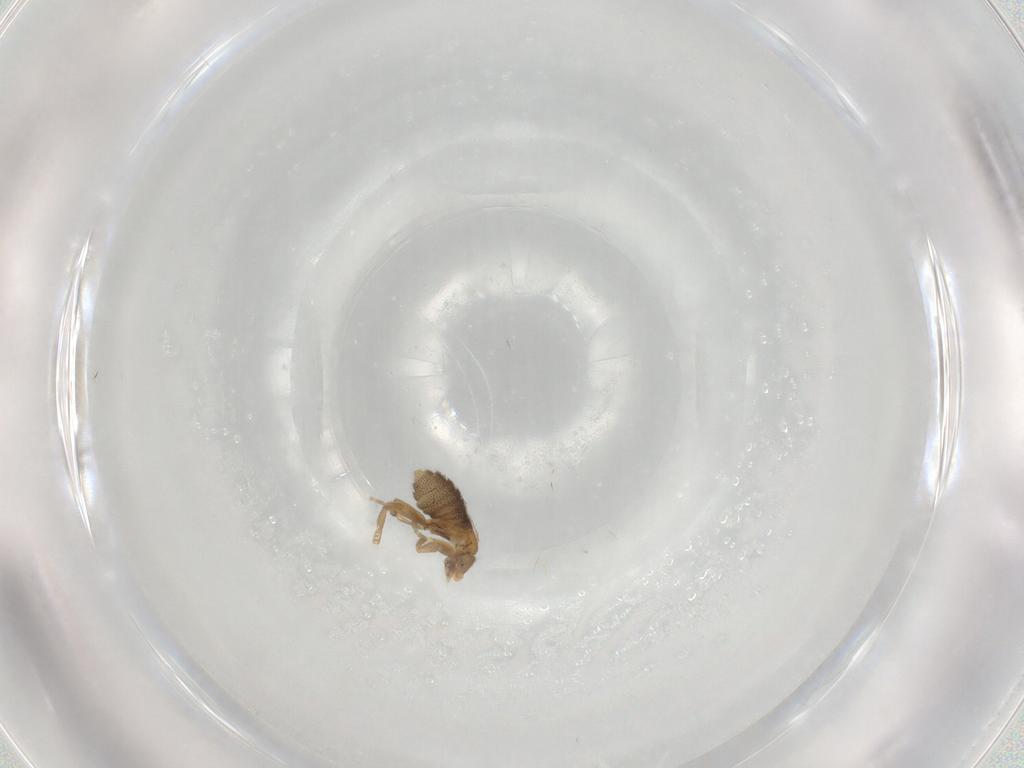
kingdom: Animalia
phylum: Arthropoda
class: Insecta
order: Diptera
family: Phoridae
